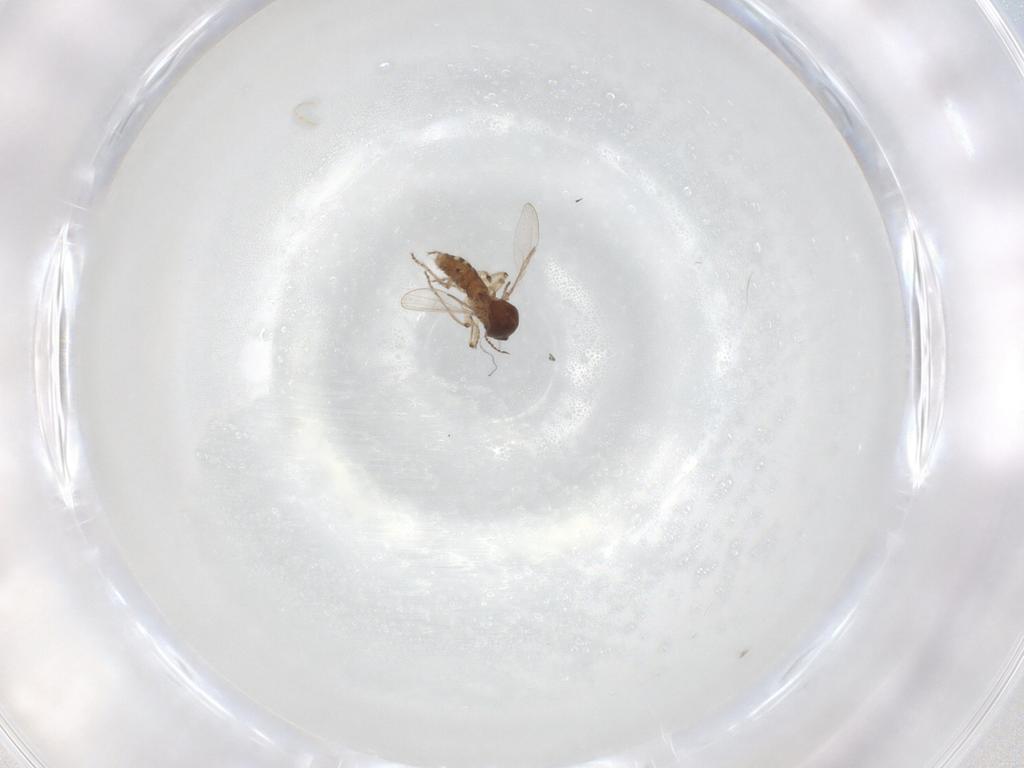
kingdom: Animalia
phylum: Arthropoda
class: Insecta
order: Diptera
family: Ceratopogonidae
